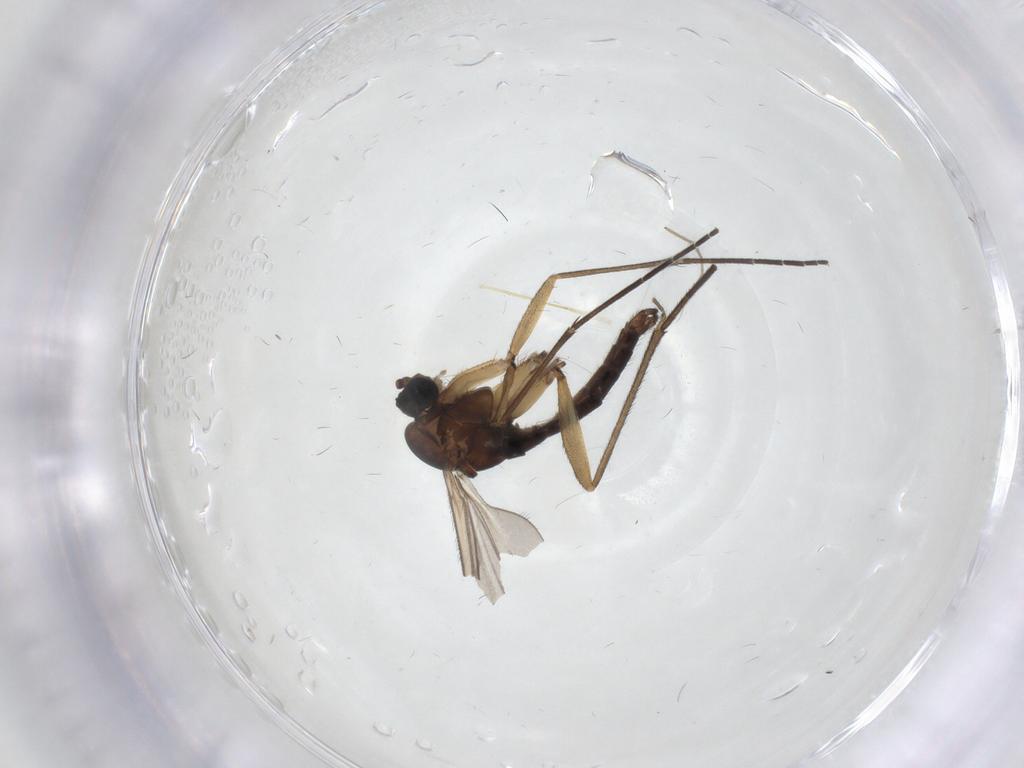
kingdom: Animalia
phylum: Arthropoda
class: Insecta
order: Diptera
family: Sciaridae
